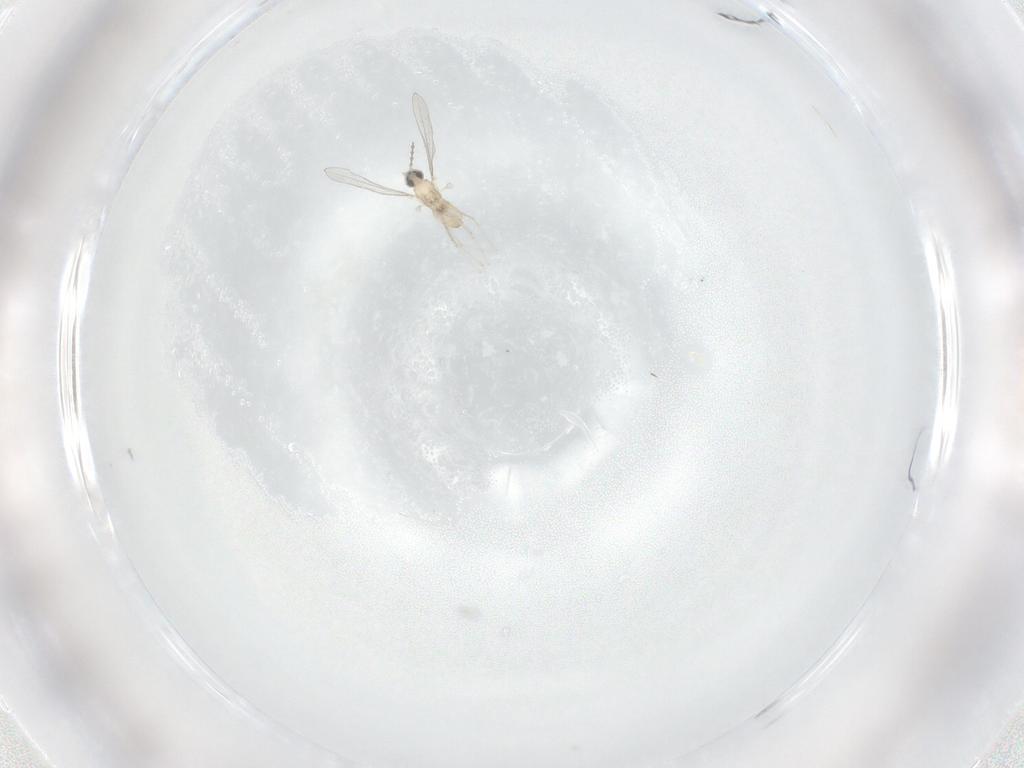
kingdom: Animalia
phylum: Arthropoda
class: Insecta
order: Diptera
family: Cecidomyiidae
